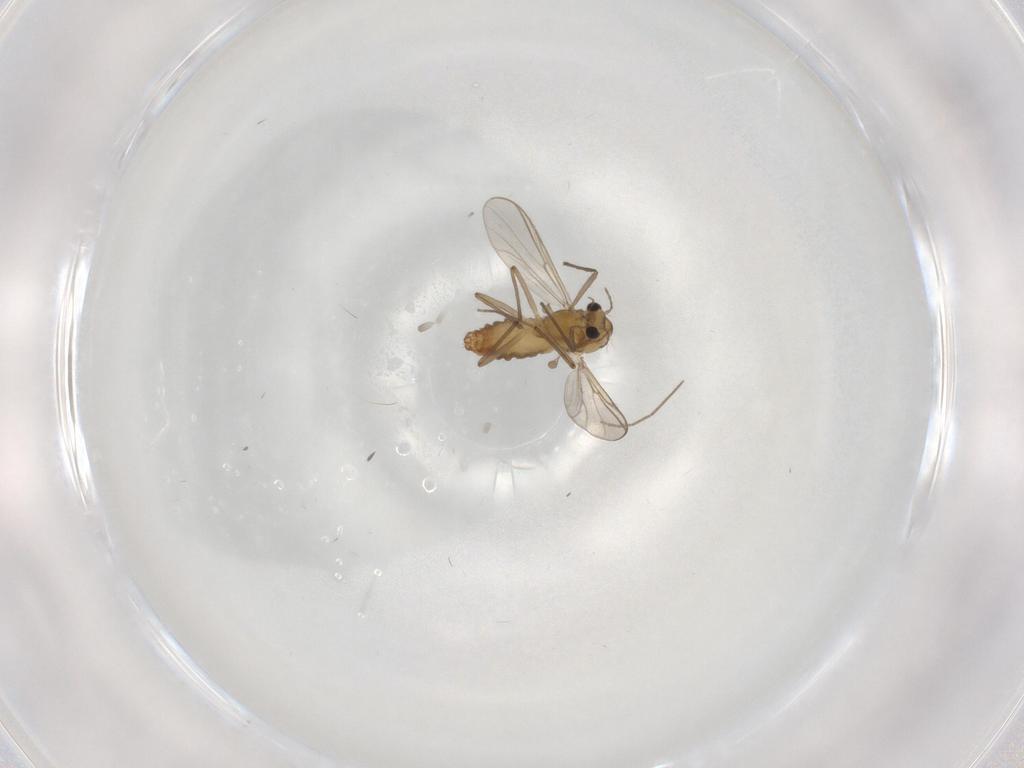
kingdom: Animalia
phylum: Arthropoda
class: Insecta
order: Diptera
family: Chironomidae
